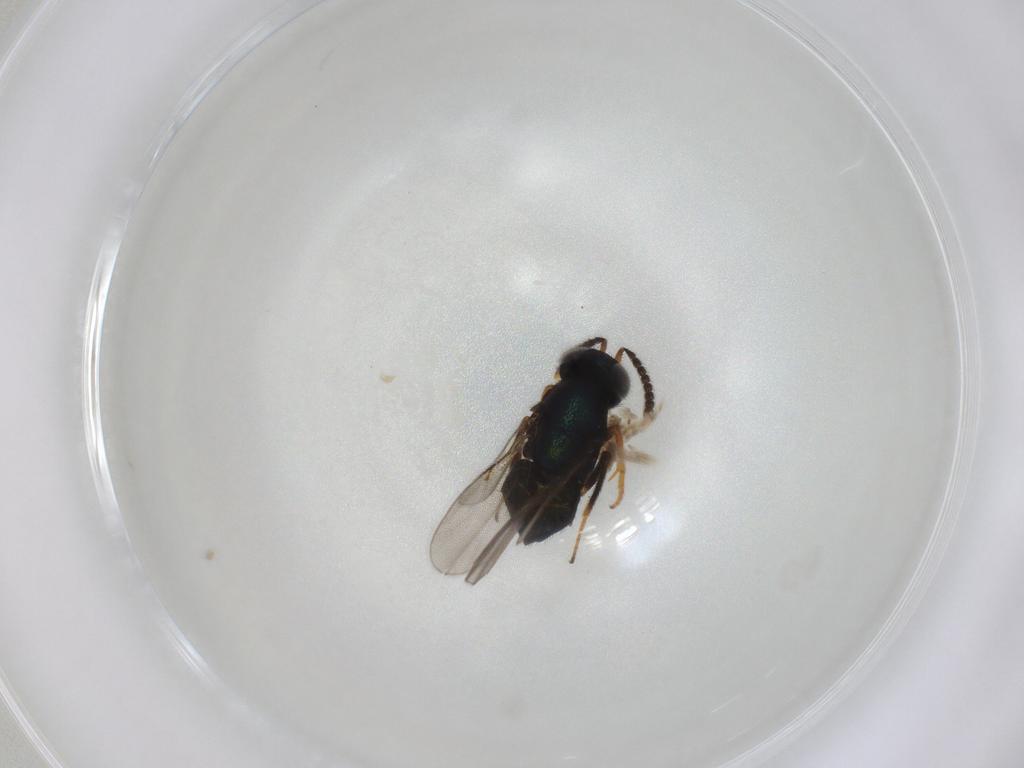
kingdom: Animalia
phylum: Arthropoda
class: Insecta
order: Hymenoptera
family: Encyrtidae
